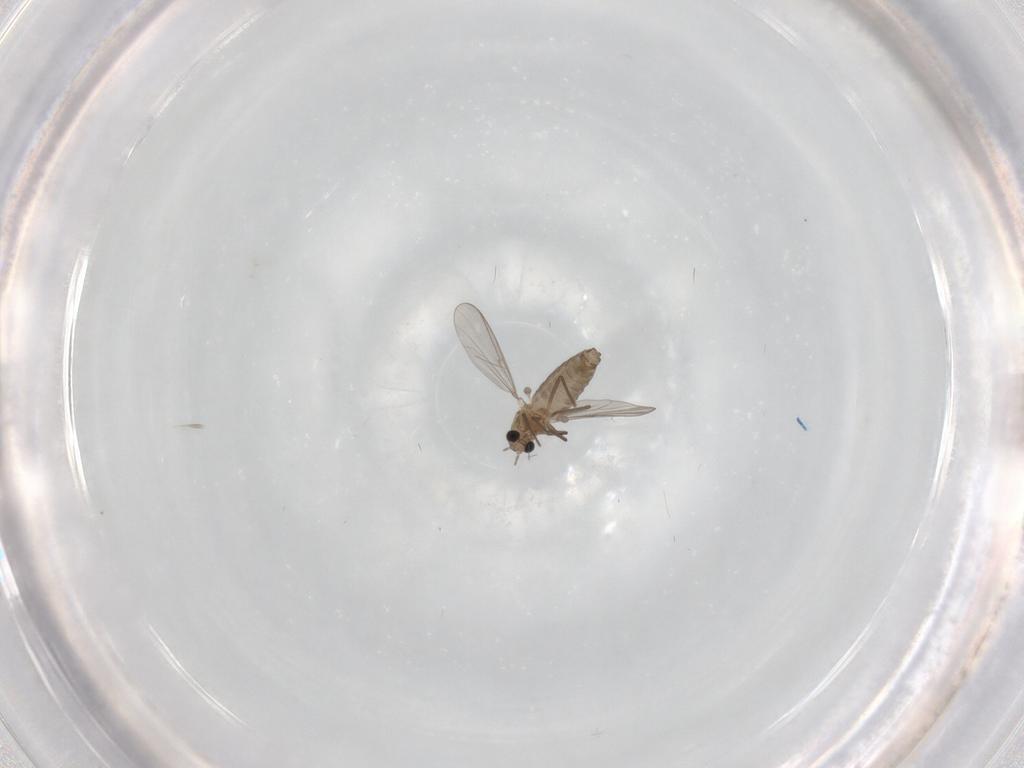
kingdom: Animalia
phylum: Arthropoda
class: Insecta
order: Diptera
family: Chironomidae
